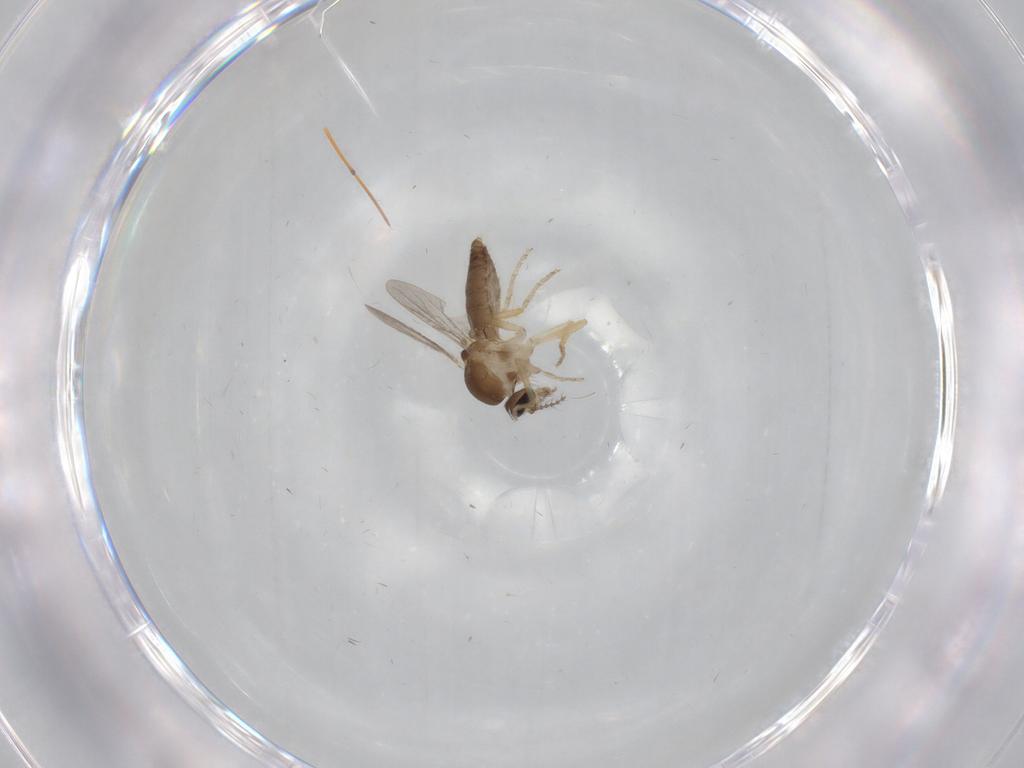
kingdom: Animalia
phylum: Arthropoda
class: Insecta
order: Diptera
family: Ceratopogonidae
